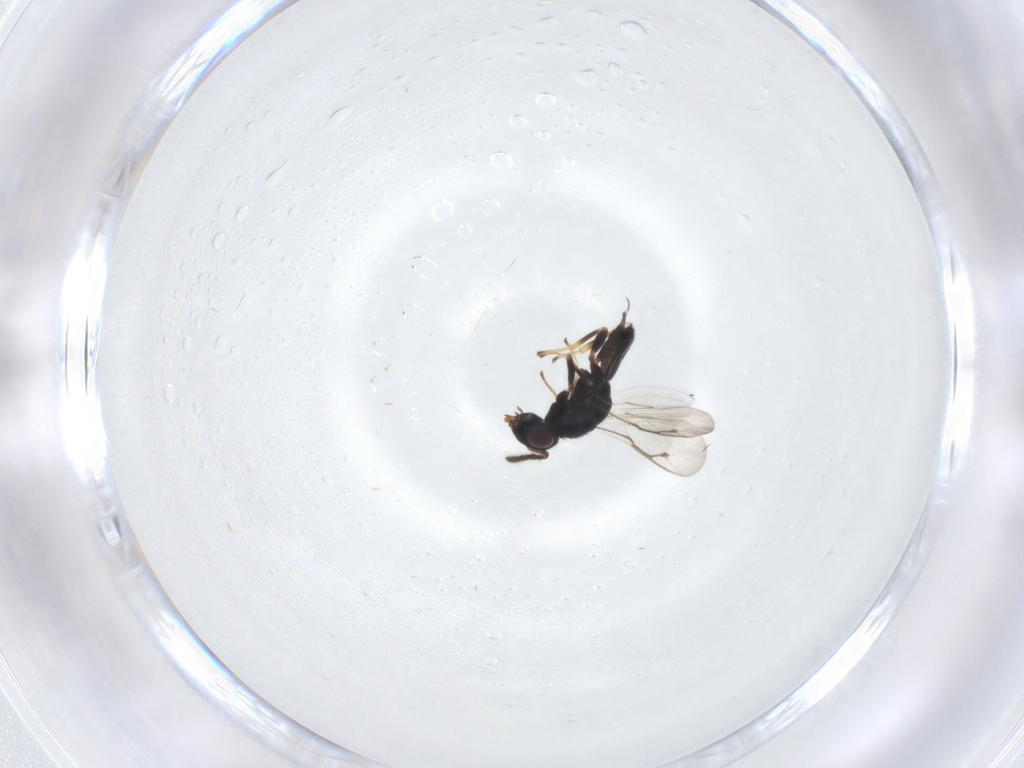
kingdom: Animalia
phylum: Arthropoda
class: Insecta
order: Hymenoptera
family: Pteromalidae
